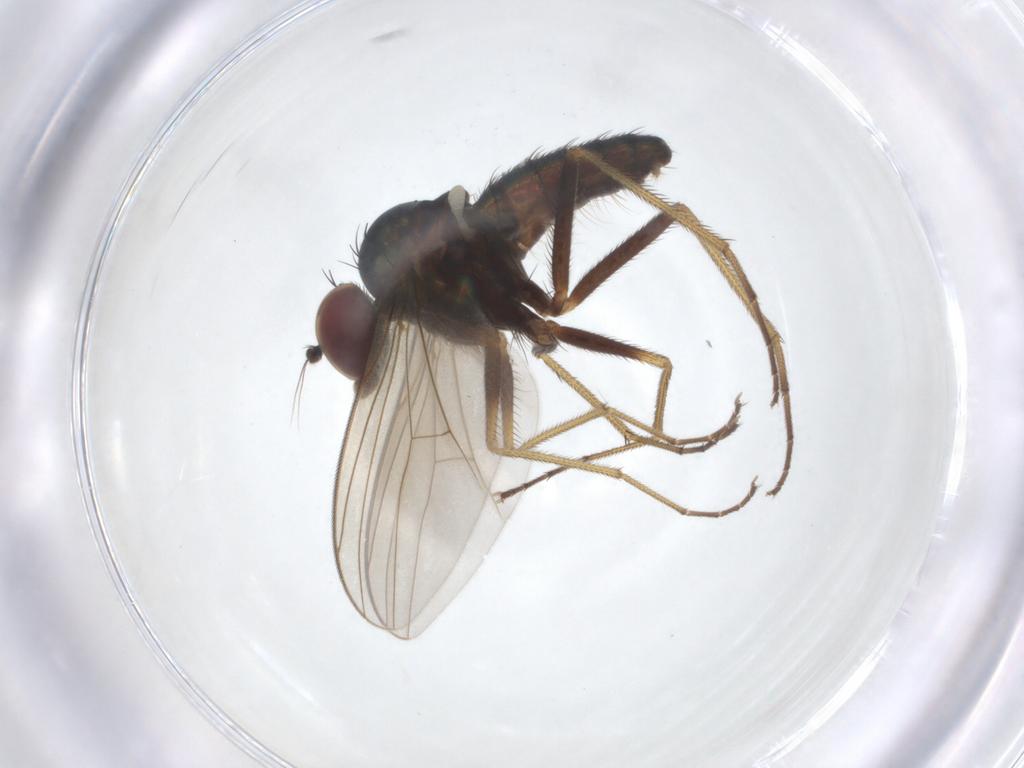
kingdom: Animalia
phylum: Arthropoda
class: Insecta
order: Diptera
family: Dolichopodidae
